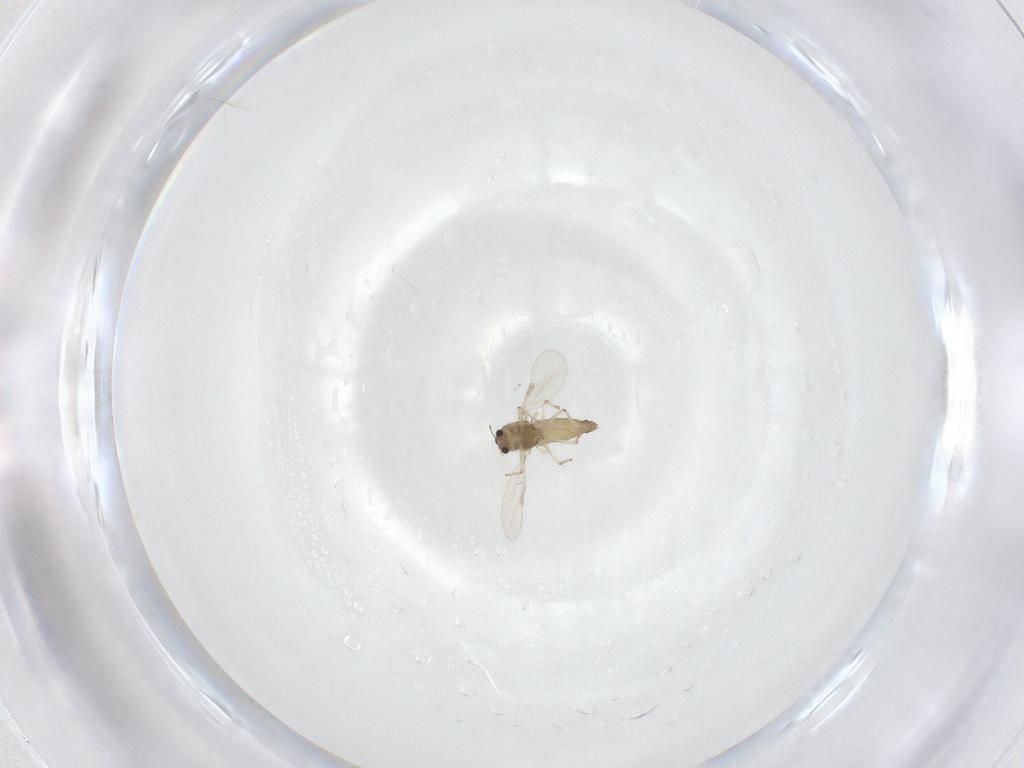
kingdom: Animalia
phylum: Arthropoda
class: Insecta
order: Diptera
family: Chironomidae
